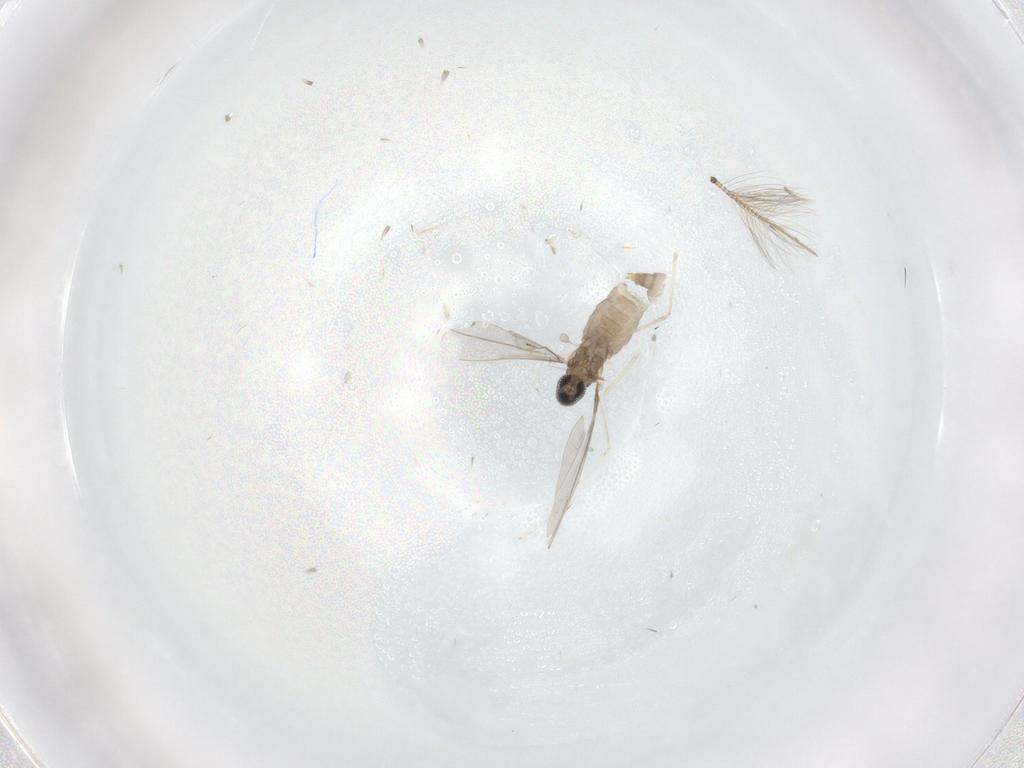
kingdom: Animalia
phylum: Arthropoda
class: Insecta
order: Diptera
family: Cecidomyiidae
